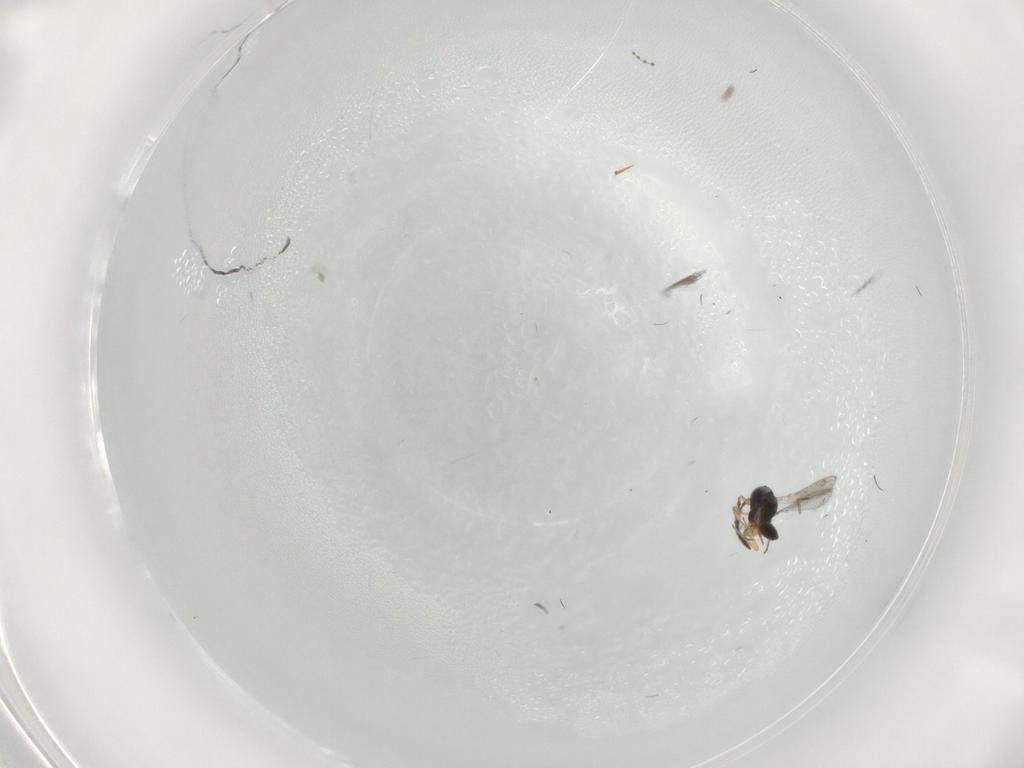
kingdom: Animalia
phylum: Arthropoda
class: Insecta
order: Hymenoptera
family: Scelionidae
